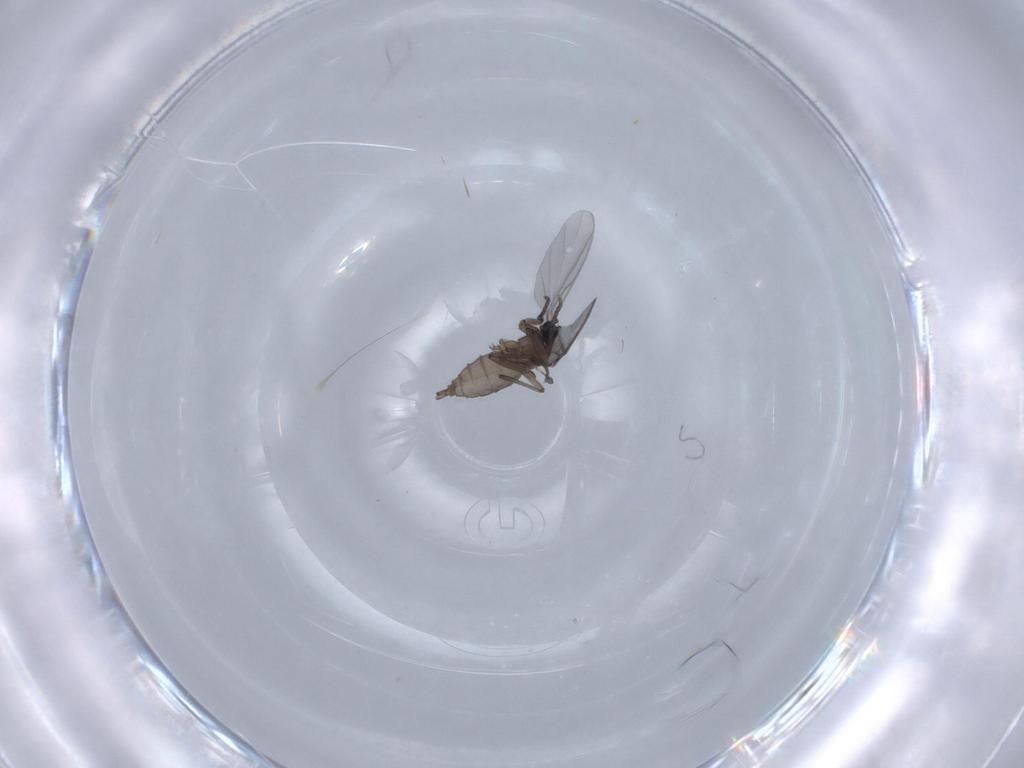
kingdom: Animalia
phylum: Arthropoda
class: Insecta
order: Diptera
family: Sciaridae
